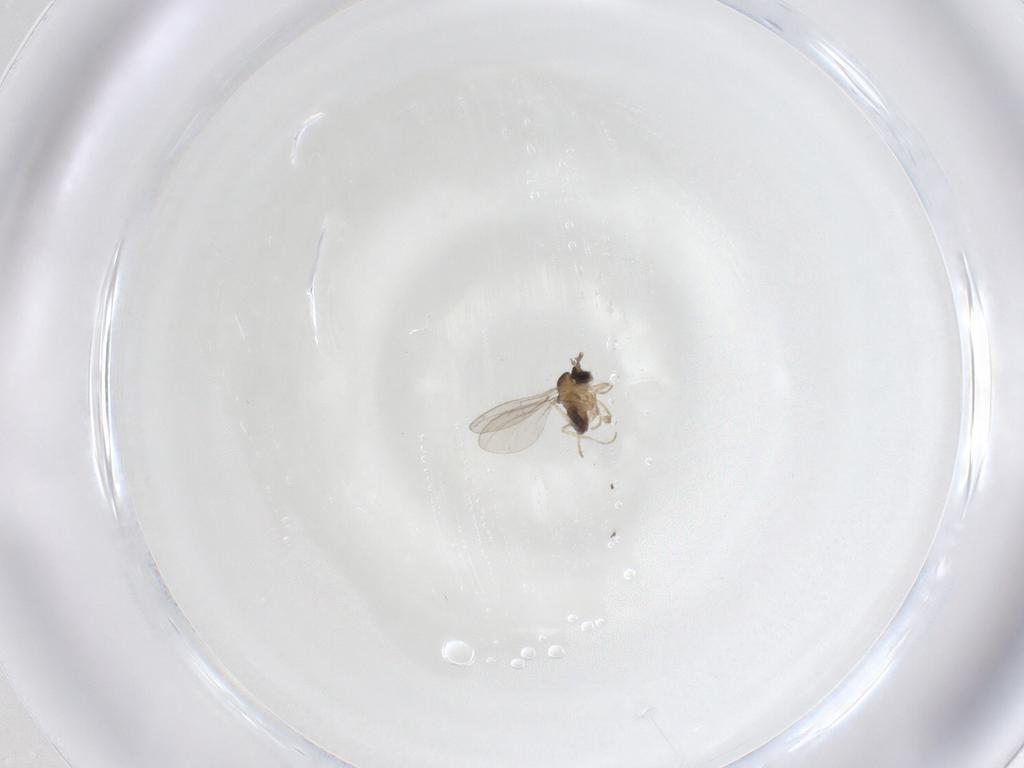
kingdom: Animalia
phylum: Arthropoda
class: Insecta
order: Diptera
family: Cecidomyiidae
